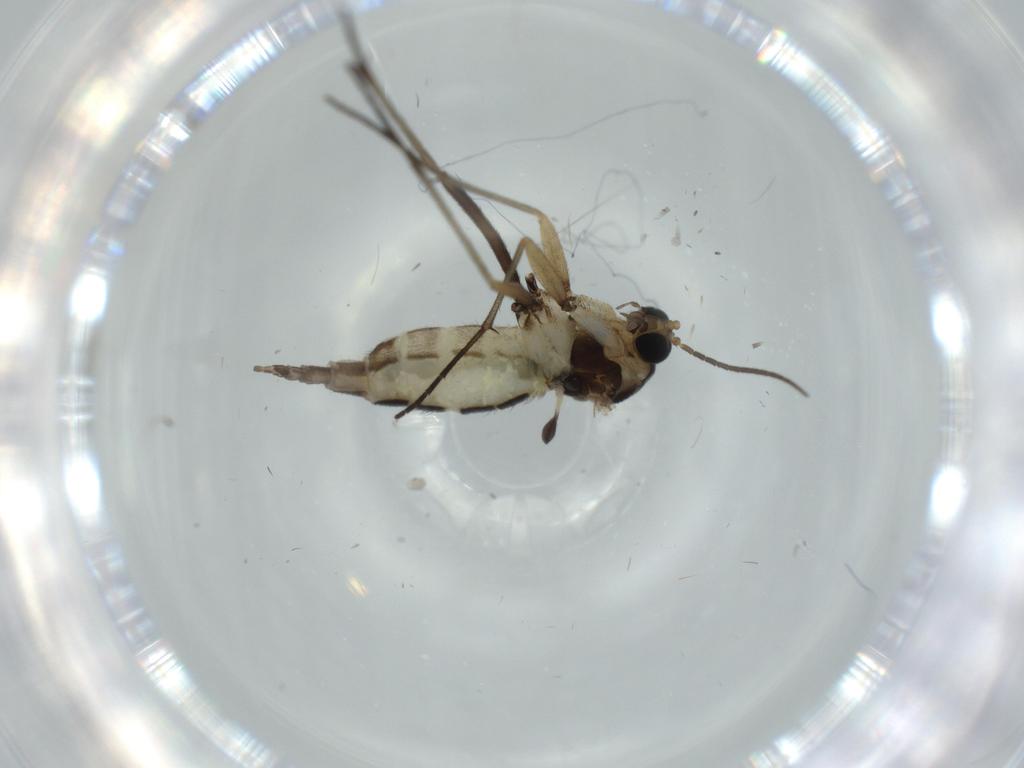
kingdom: Animalia
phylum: Arthropoda
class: Insecta
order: Diptera
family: Sciaridae
